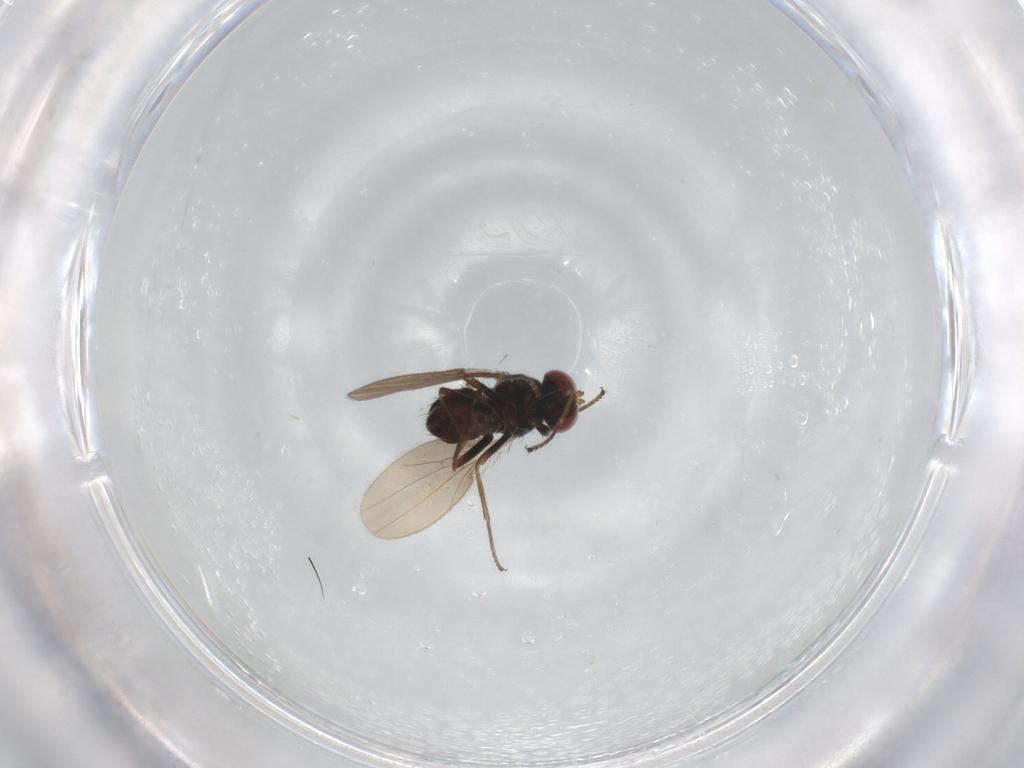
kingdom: Animalia
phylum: Arthropoda
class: Insecta
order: Diptera
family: Ephydridae
